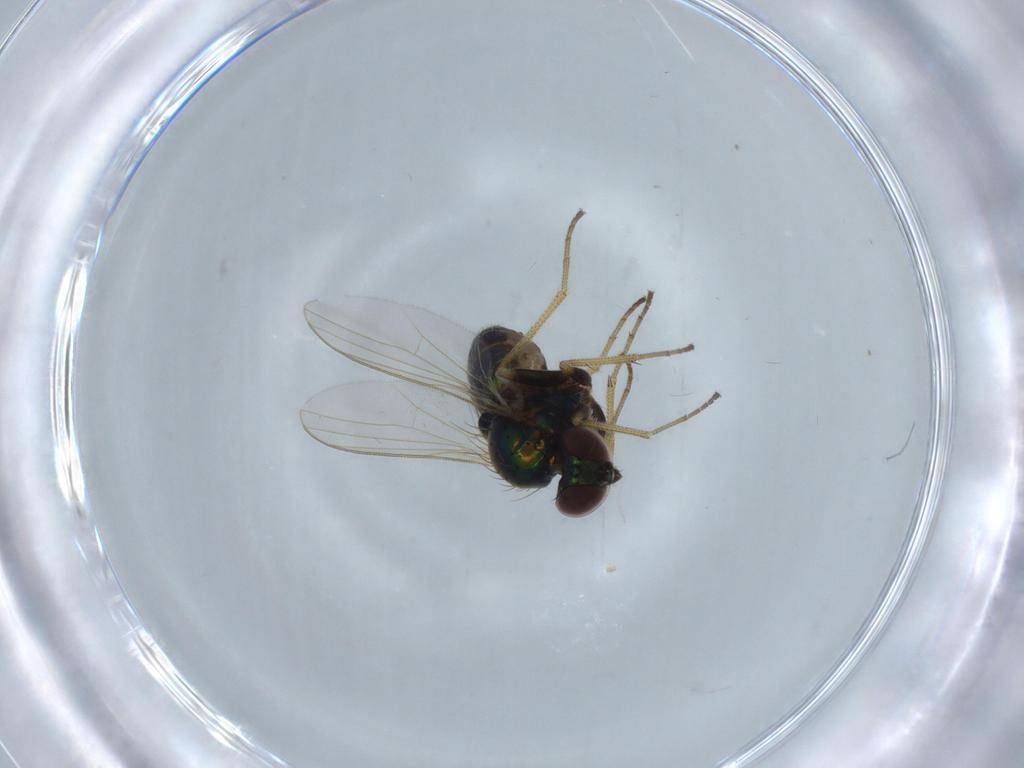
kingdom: Animalia
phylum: Arthropoda
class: Insecta
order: Diptera
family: Dolichopodidae
